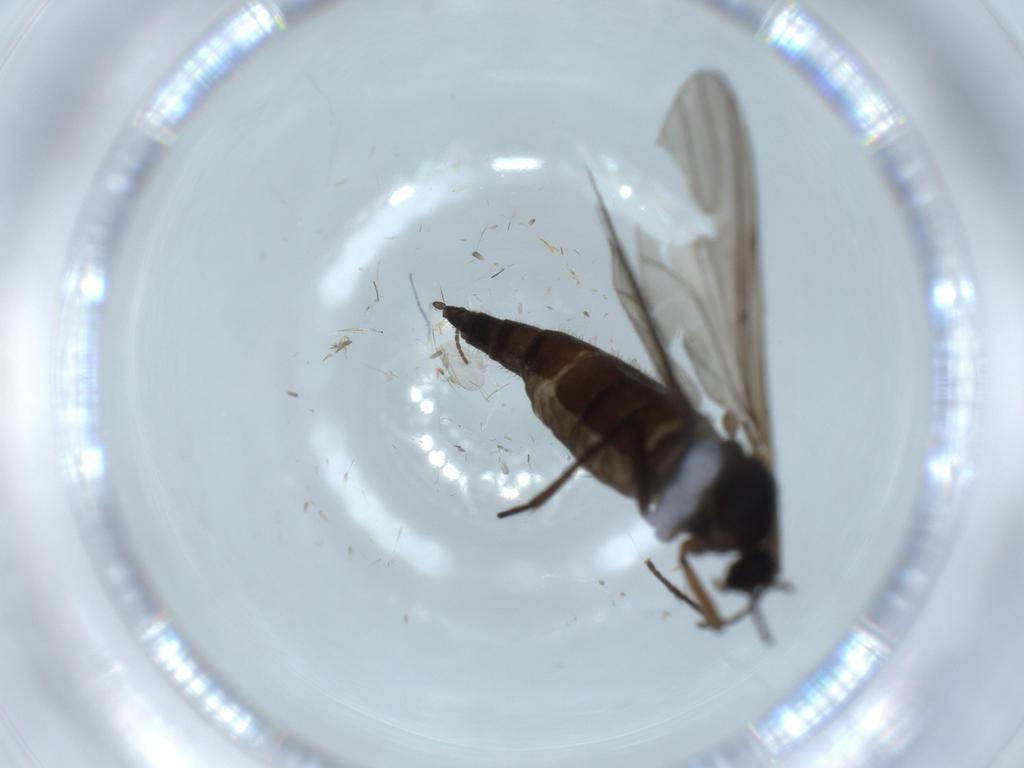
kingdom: Animalia
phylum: Arthropoda
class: Insecta
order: Diptera
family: Sciaridae
